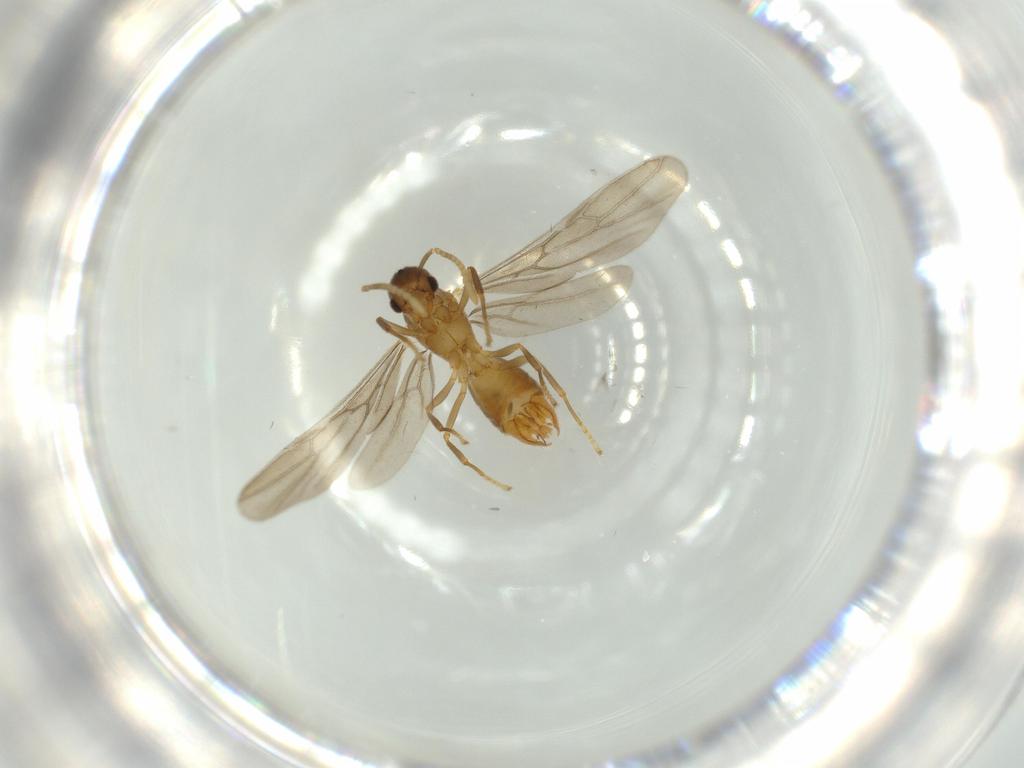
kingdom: Animalia
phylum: Arthropoda
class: Insecta
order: Hymenoptera
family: Formicidae
